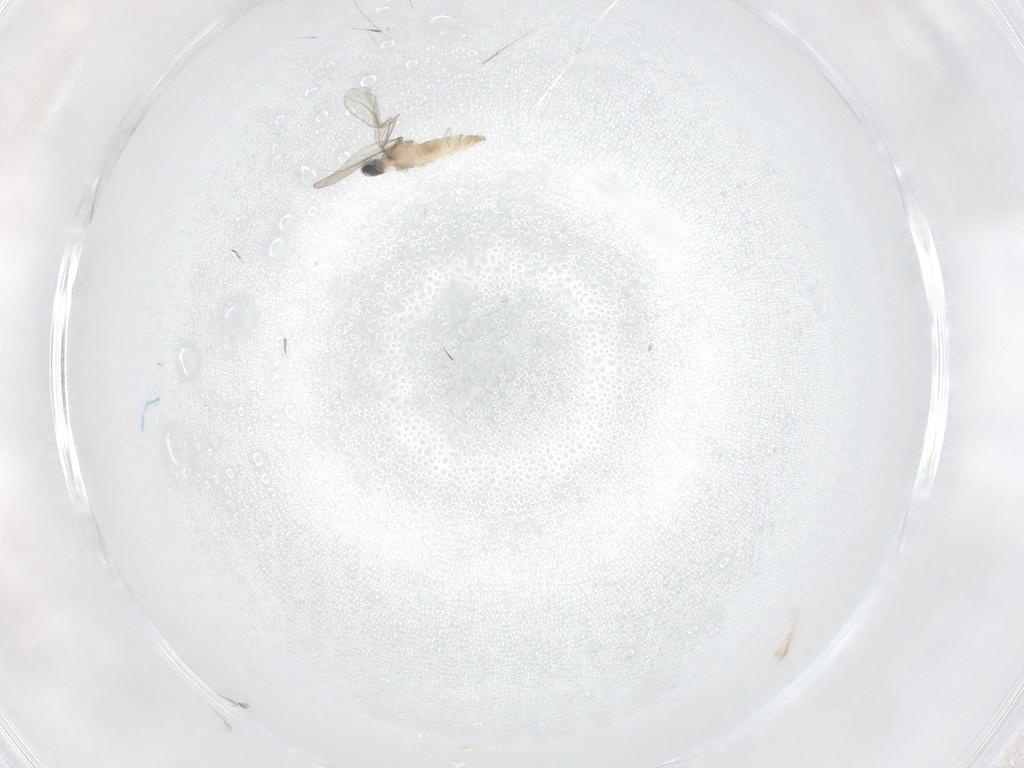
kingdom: Animalia
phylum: Arthropoda
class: Insecta
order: Diptera
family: Cecidomyiidae
